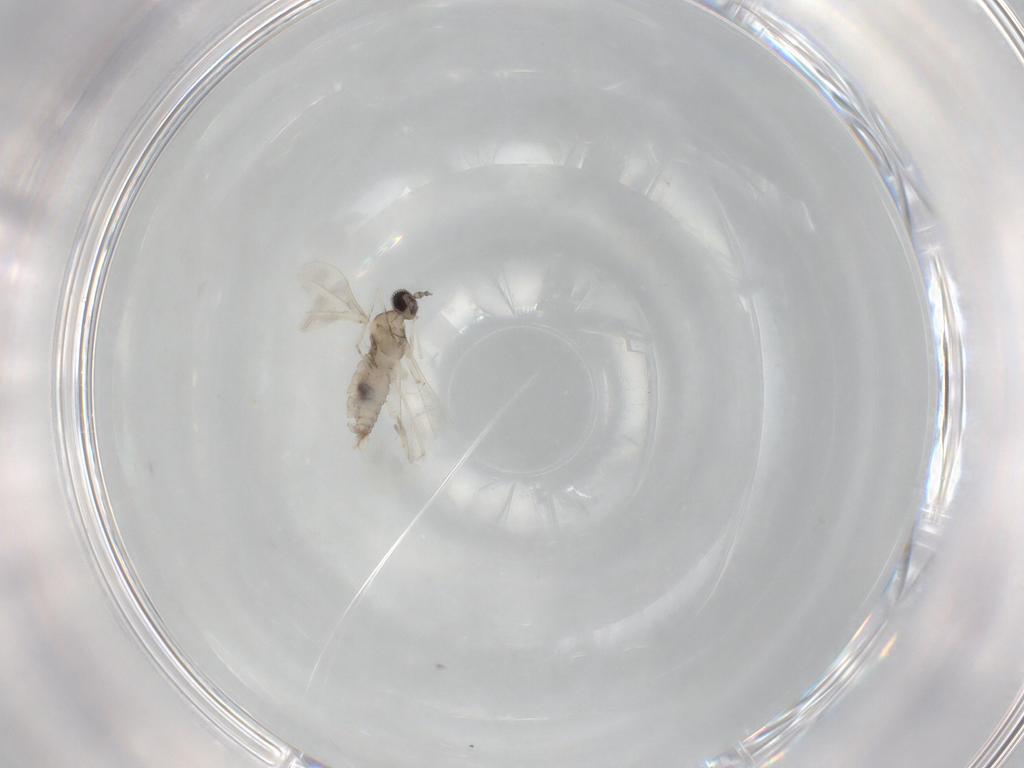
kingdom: Animalia
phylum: Arthropoda
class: Insecta
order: Diptera
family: Cecidomyiidae
